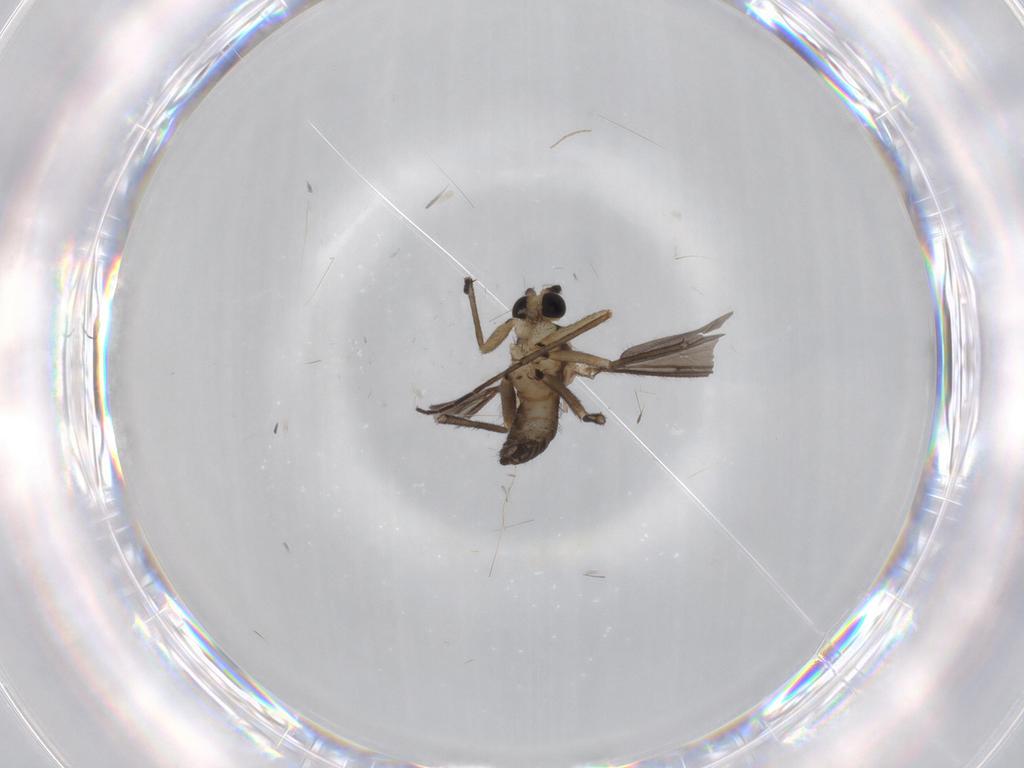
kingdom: Animalia
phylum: Arthropoda
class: Insecta
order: Diptera
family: Sciaridae
